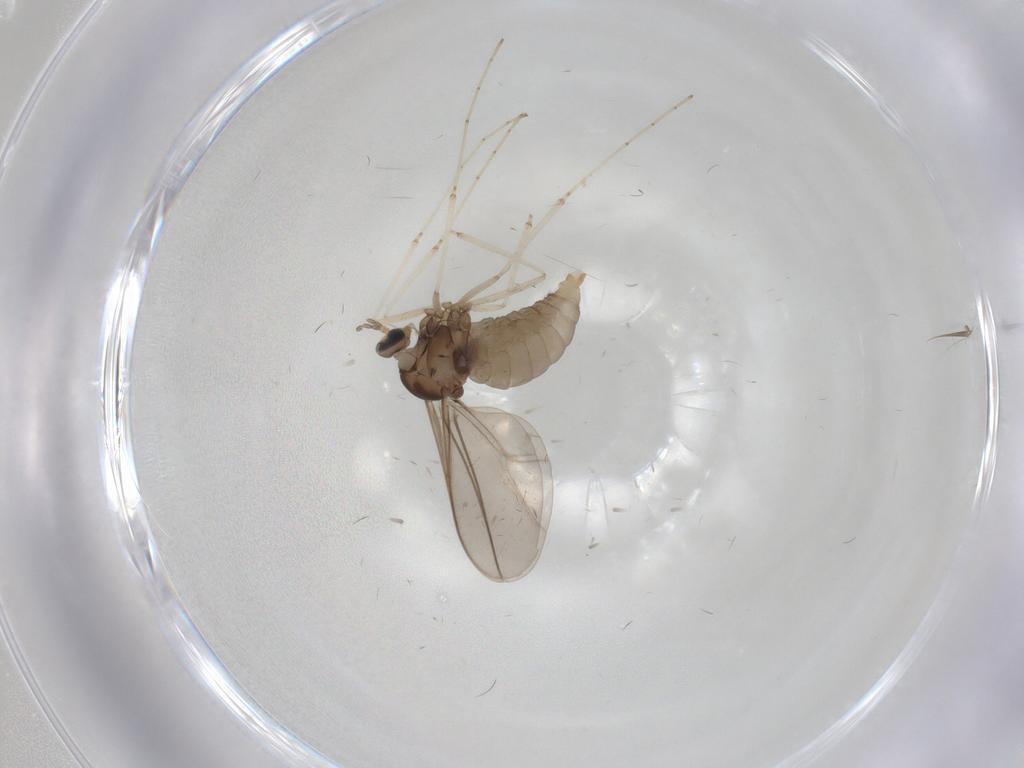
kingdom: Animalia
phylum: Arthropoda
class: Insecta
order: Diptera
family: Cecidomyiidae
